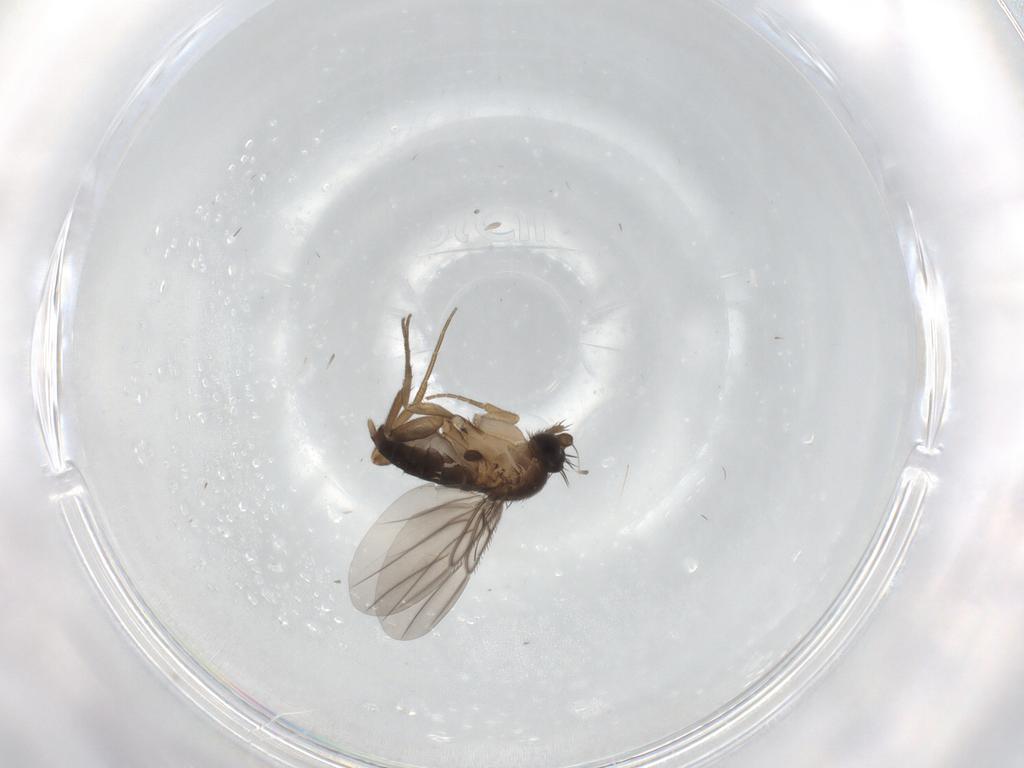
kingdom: Animalia
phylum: Arthropoda
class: Insecta
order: Diptera
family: Phoridae
